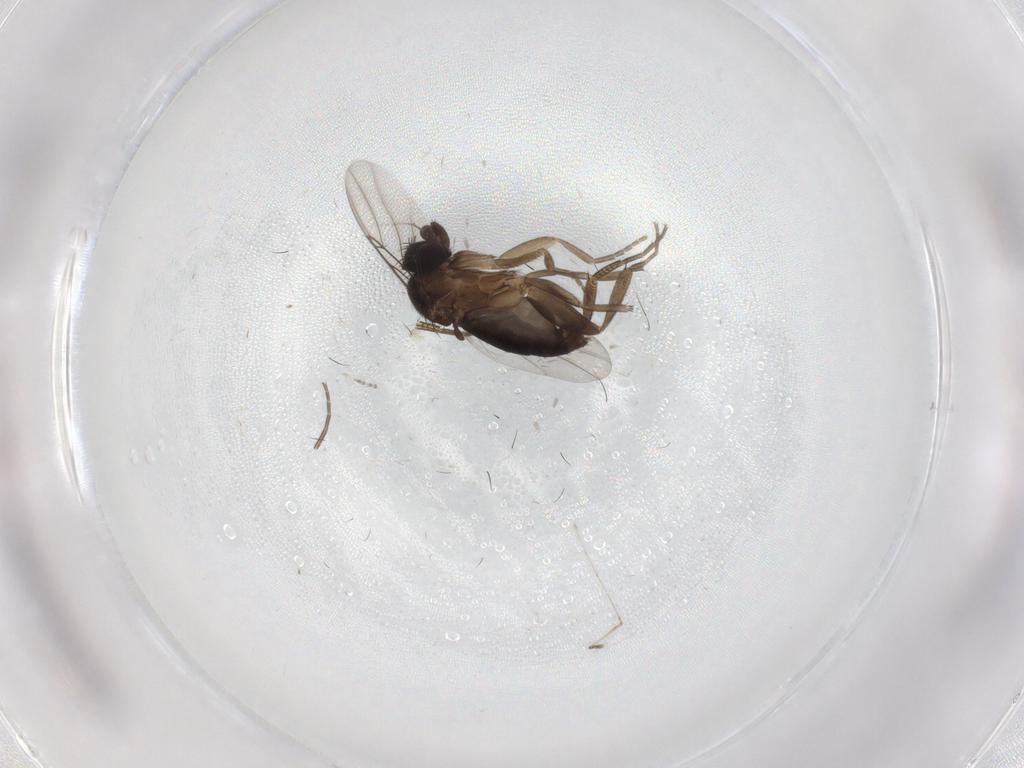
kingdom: Animalia
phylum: Arthropoda
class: Insecta
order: Diptera
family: Phoridae
